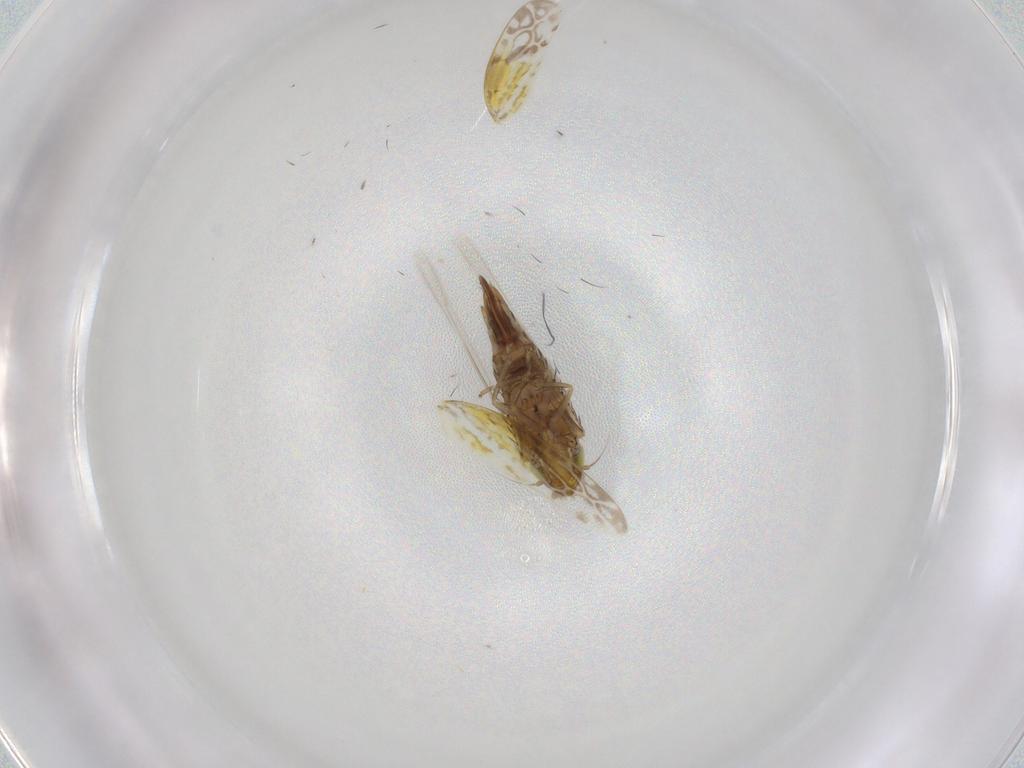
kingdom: Animalia
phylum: Arthropoda
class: Insecta
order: Hemiptera
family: Cicadellidae
